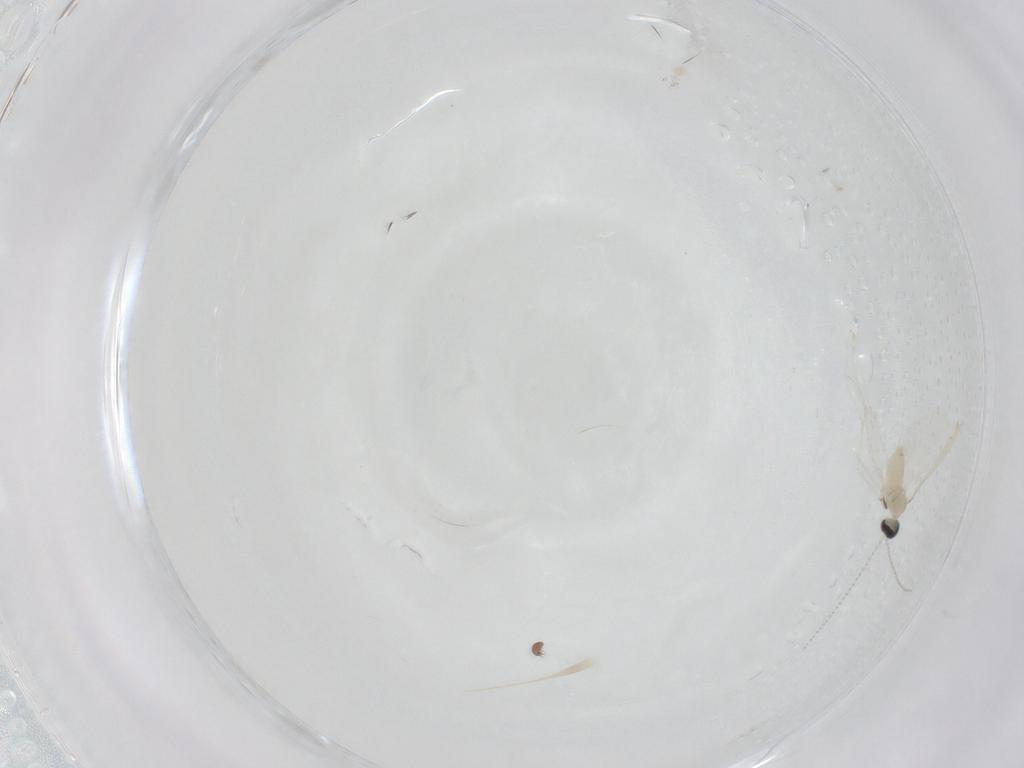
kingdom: Animalia
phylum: Arthropoda
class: Insecta
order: Diptera
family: Cecidomyiidae
